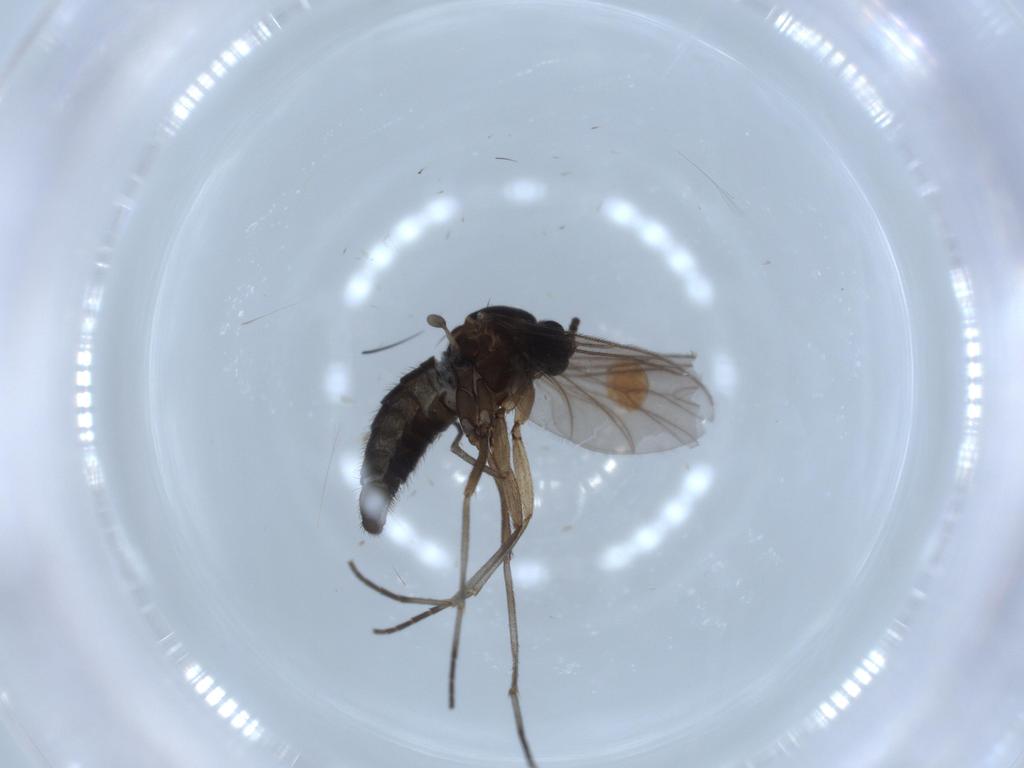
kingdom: Animalia
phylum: Arthropoda
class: Insecta
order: Diptera
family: Sciaridae
